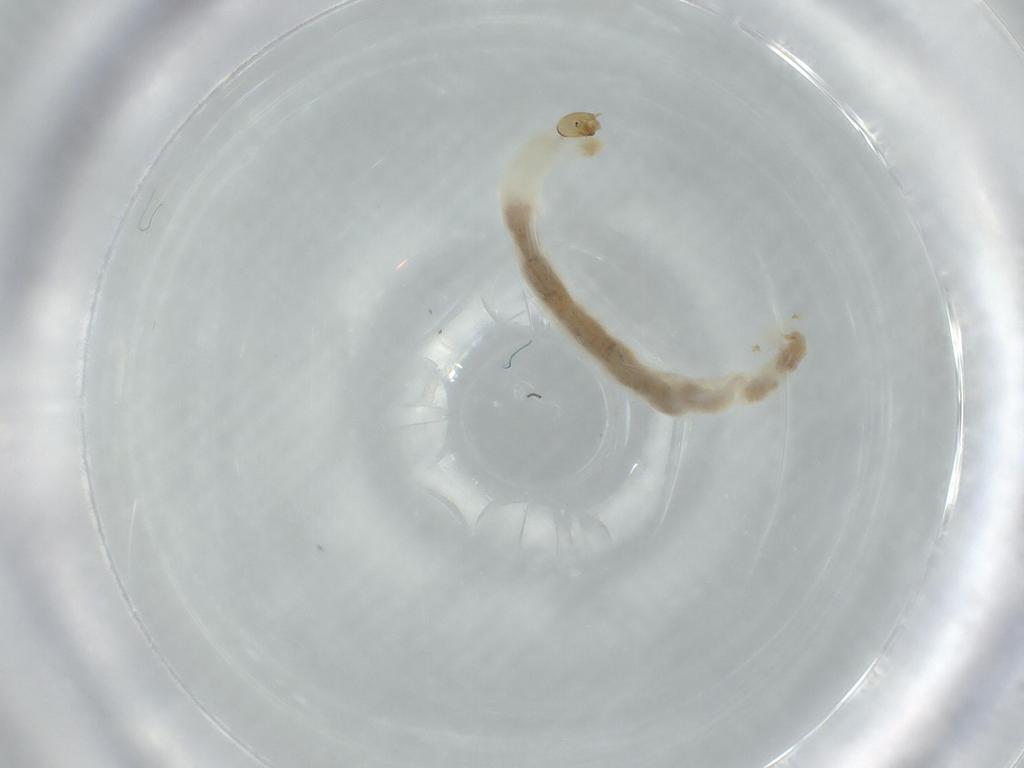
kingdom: Animalia
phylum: Arthropoda
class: Insecta
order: Diptera
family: Chironomidae
